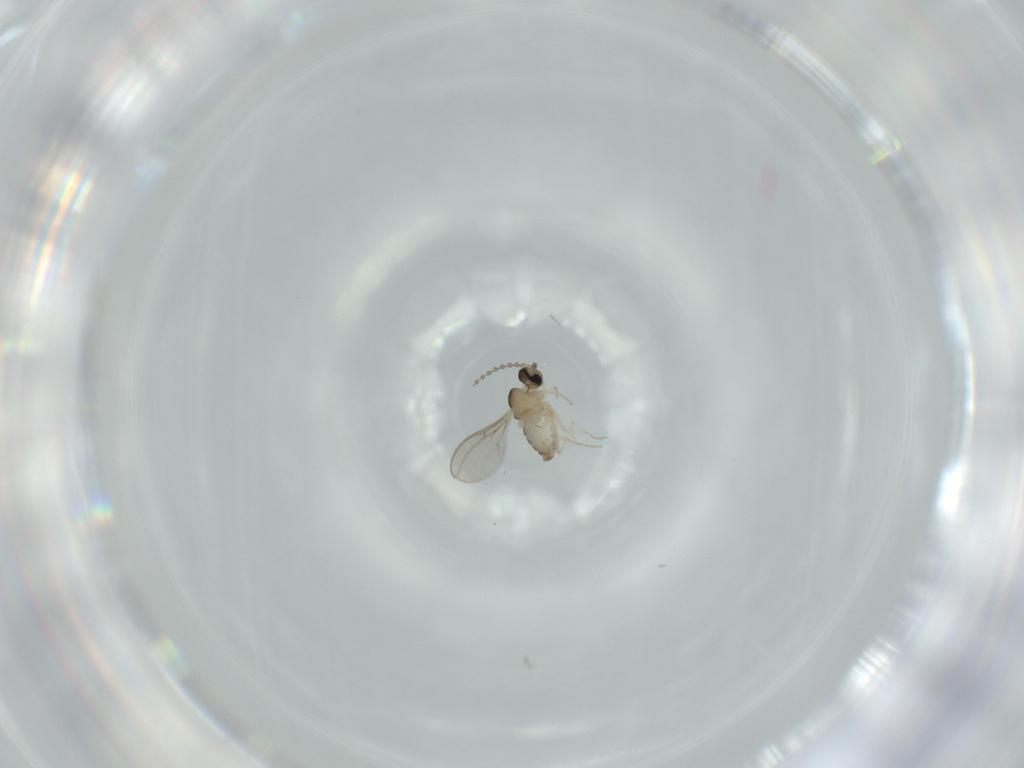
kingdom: Animalia
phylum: Arthropoda
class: Insecta
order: Diptera
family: Cecidomyiidae
